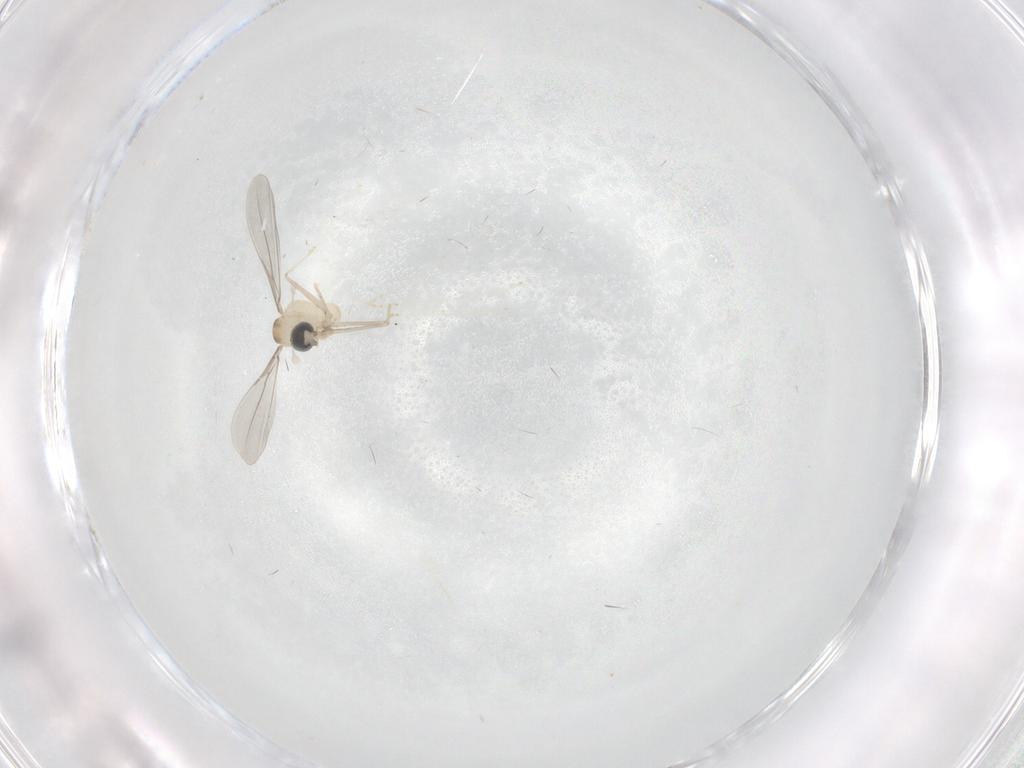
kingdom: Animalia
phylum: Arthropoda
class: Insecta
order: Diptera
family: Cecidomyiidae
